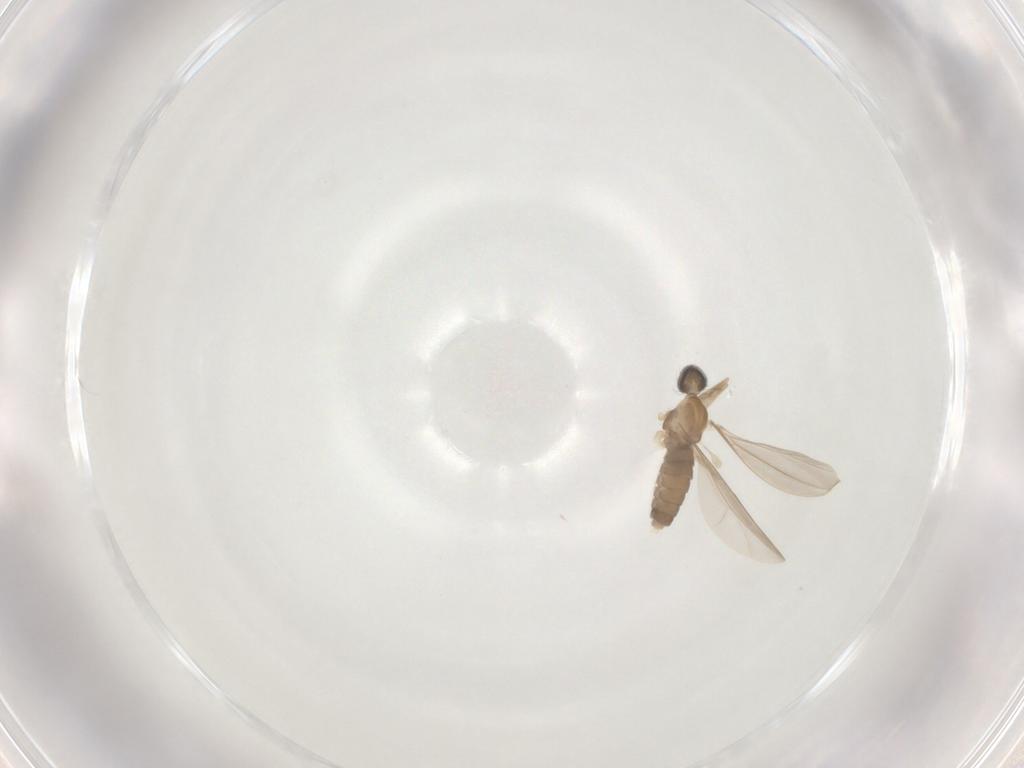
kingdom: Animalia
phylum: Arthropoda
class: Insecta
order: Diptera
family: Cecidomyiidae
